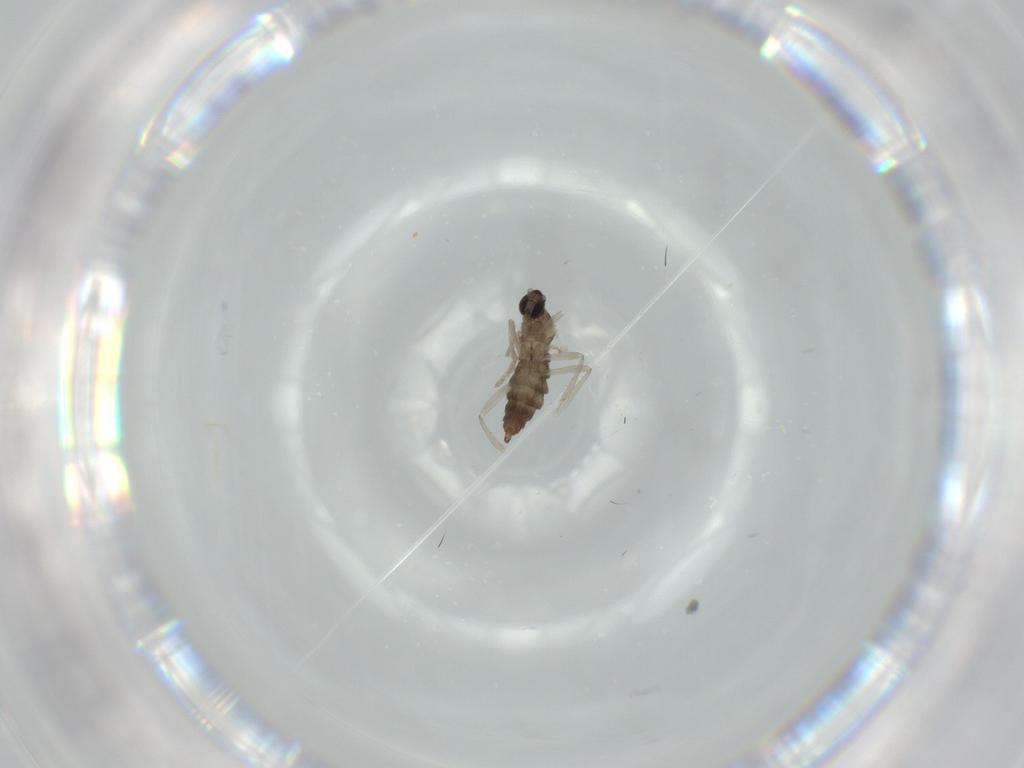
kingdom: Animalia
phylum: Arthropoda
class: Insecta
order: Diptera
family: Cecidomyiidae
